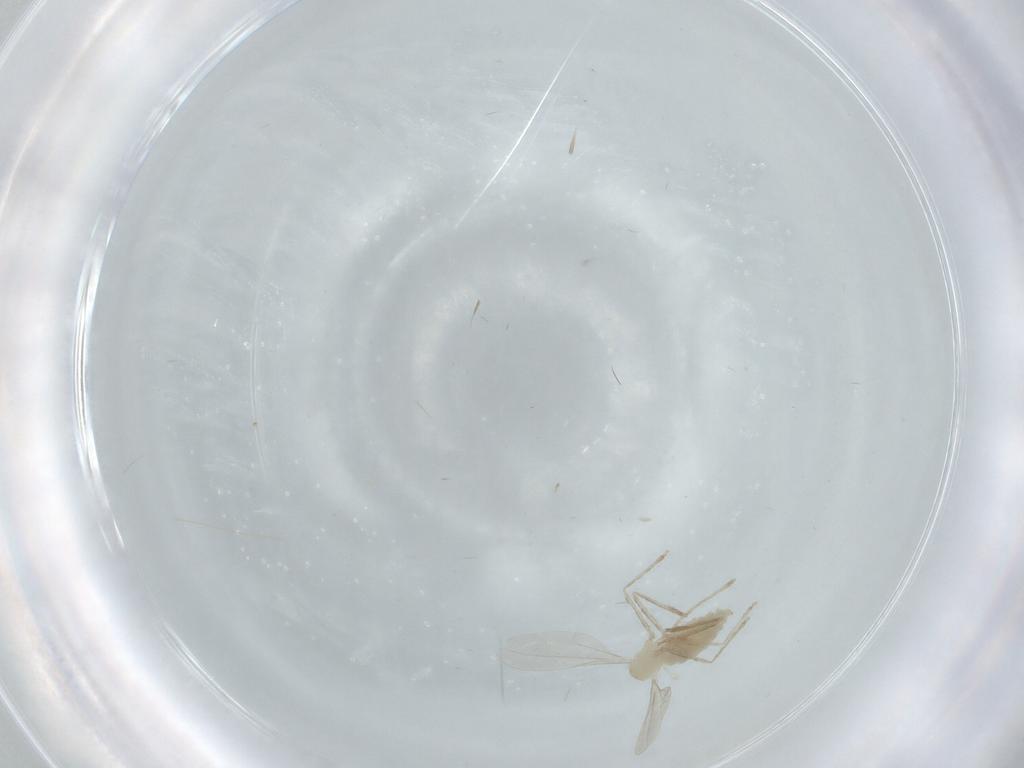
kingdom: Animalia
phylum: Arthropoda
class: Insecta
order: Diptera
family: Cecidomyiidae
